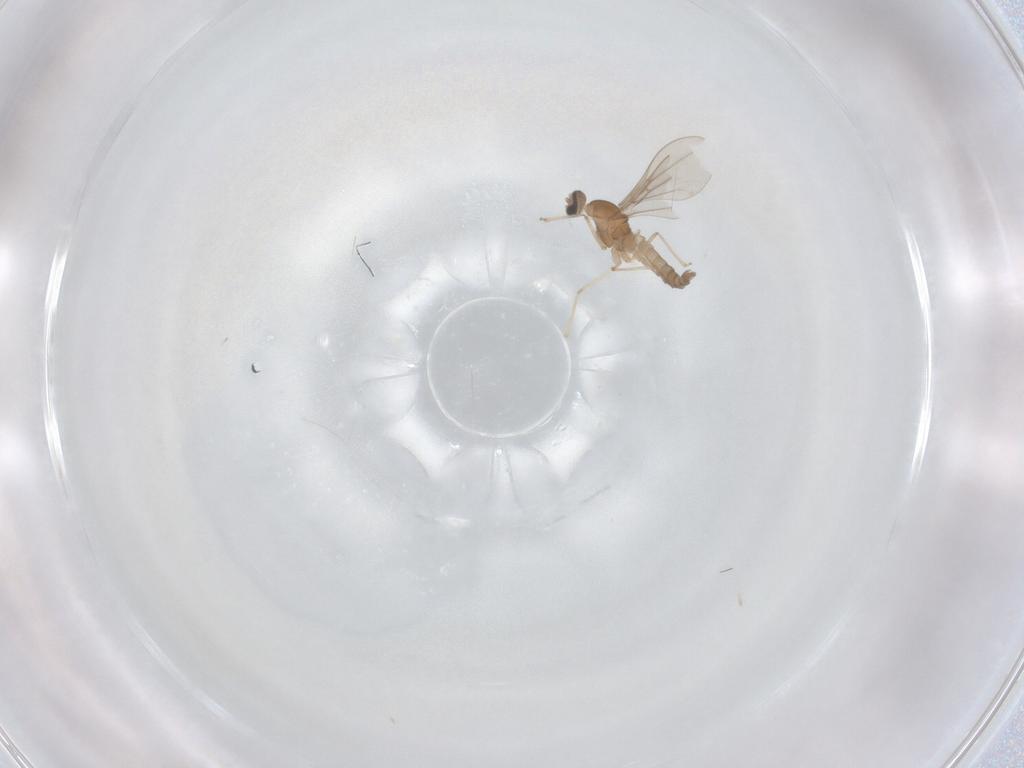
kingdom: Animalia
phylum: Arthropoda
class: Insecta
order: Diptera
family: Cecidomyiidae
